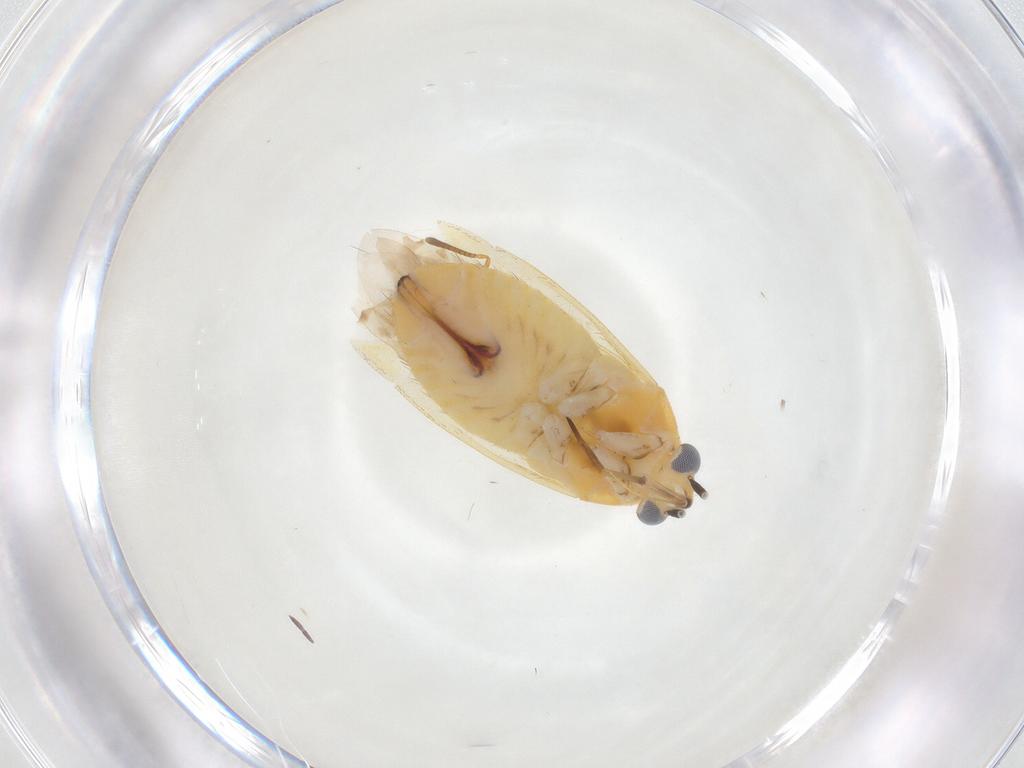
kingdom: Animalia
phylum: Arthropoda
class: Insecta
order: Hemiptera
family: Miridae
